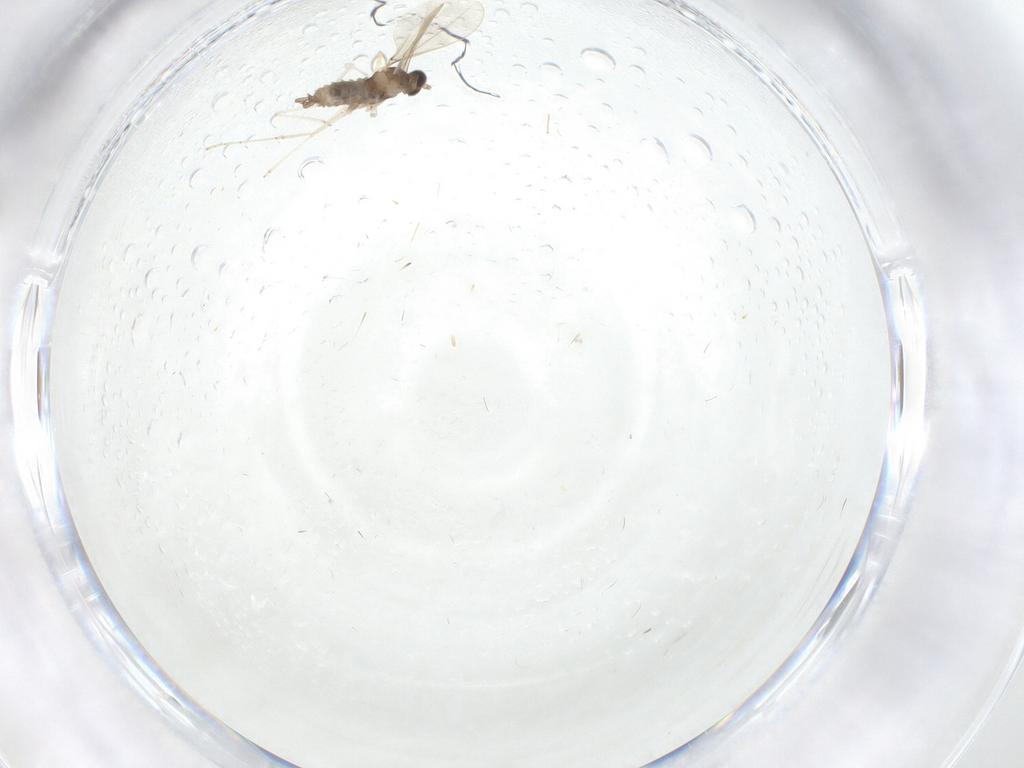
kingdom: Animalia
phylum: Arthropoda
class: Insecta
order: Diptera
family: Cecidomyiidae
